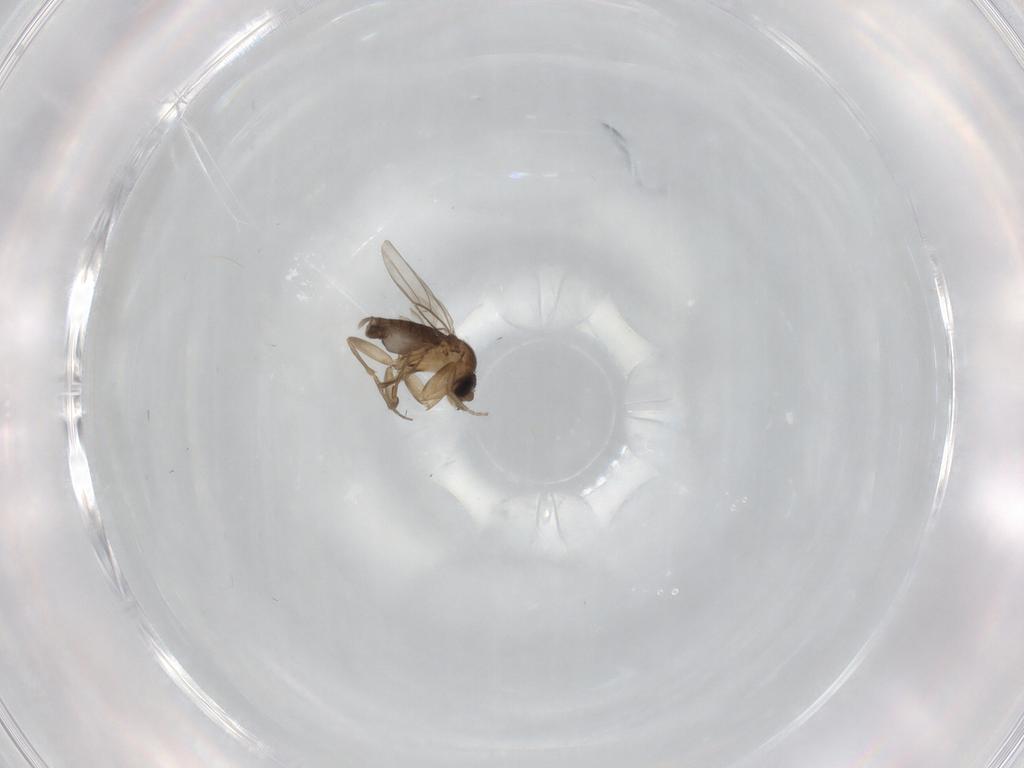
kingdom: Animalia
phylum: Arthropoda
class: Insecta
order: Diptera
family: Phoridae
